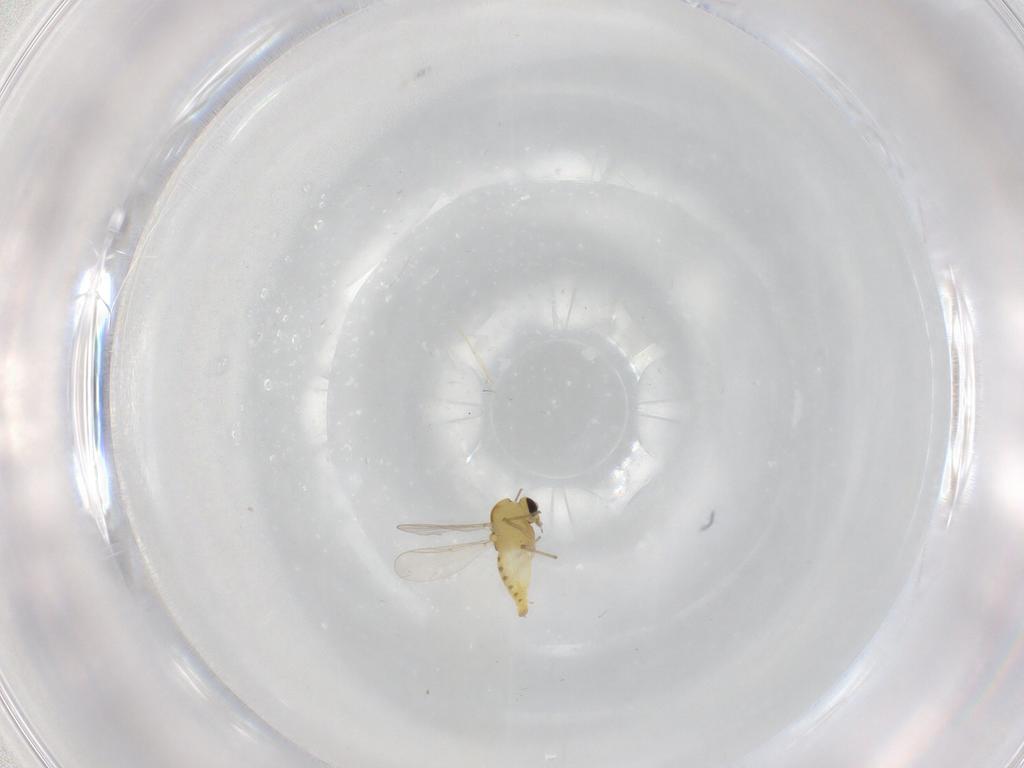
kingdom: Animalia
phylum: Arthropoda
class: Insecta
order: Diptera
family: Chironomidae
